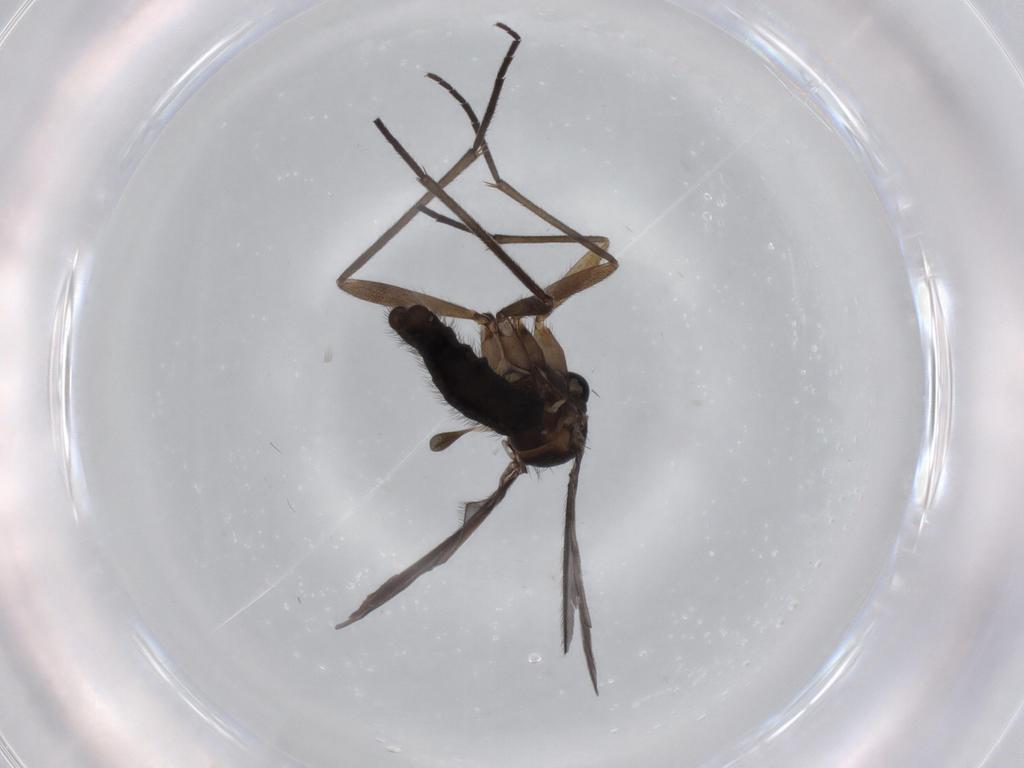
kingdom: Animalia
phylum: Arthropoda
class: Insecta
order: Diptera
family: Sciaridae
